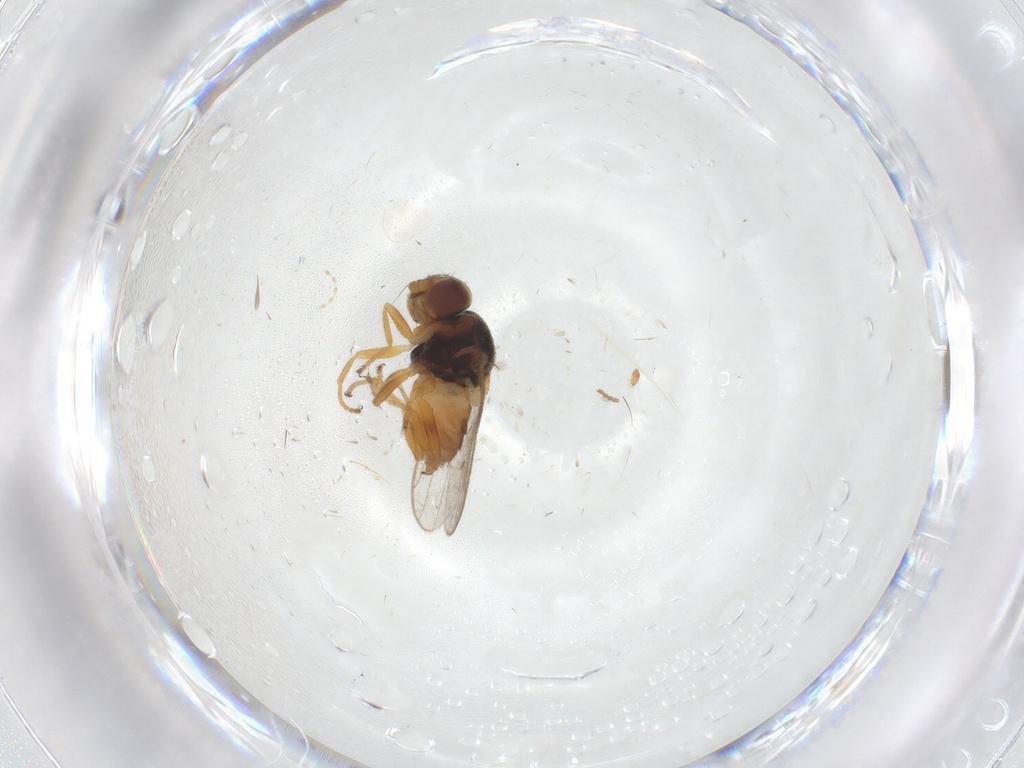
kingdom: Animalia
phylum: Arthropoda
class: Insecta
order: Diptera
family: Chloropidae
